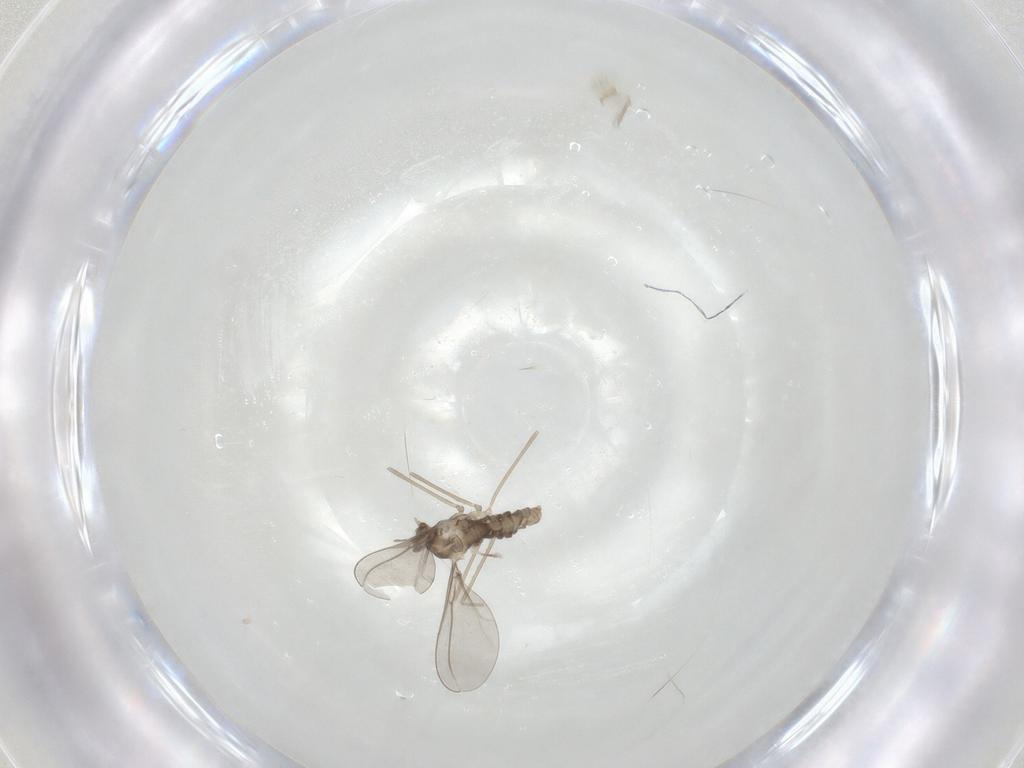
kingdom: Animalia
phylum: Arthropoda
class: Insecta
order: Diptera
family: Cecidomyiidae
